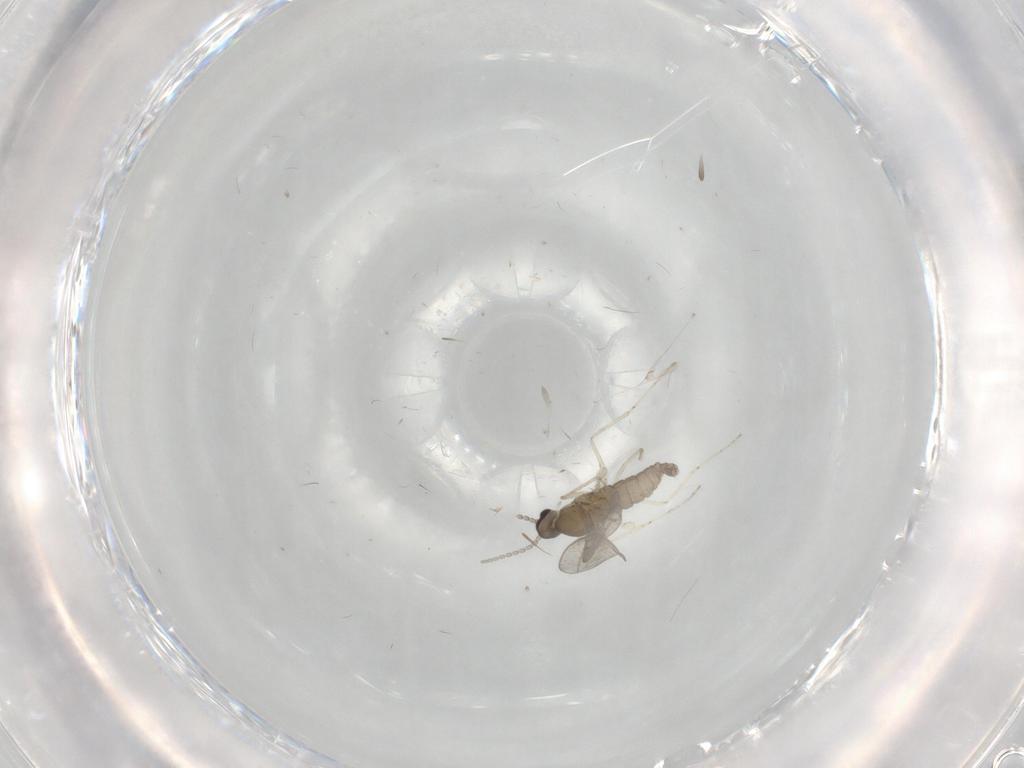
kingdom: Animalia
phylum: Arthropoda
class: Insecta
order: Diptera
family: Cecidomyiidae
